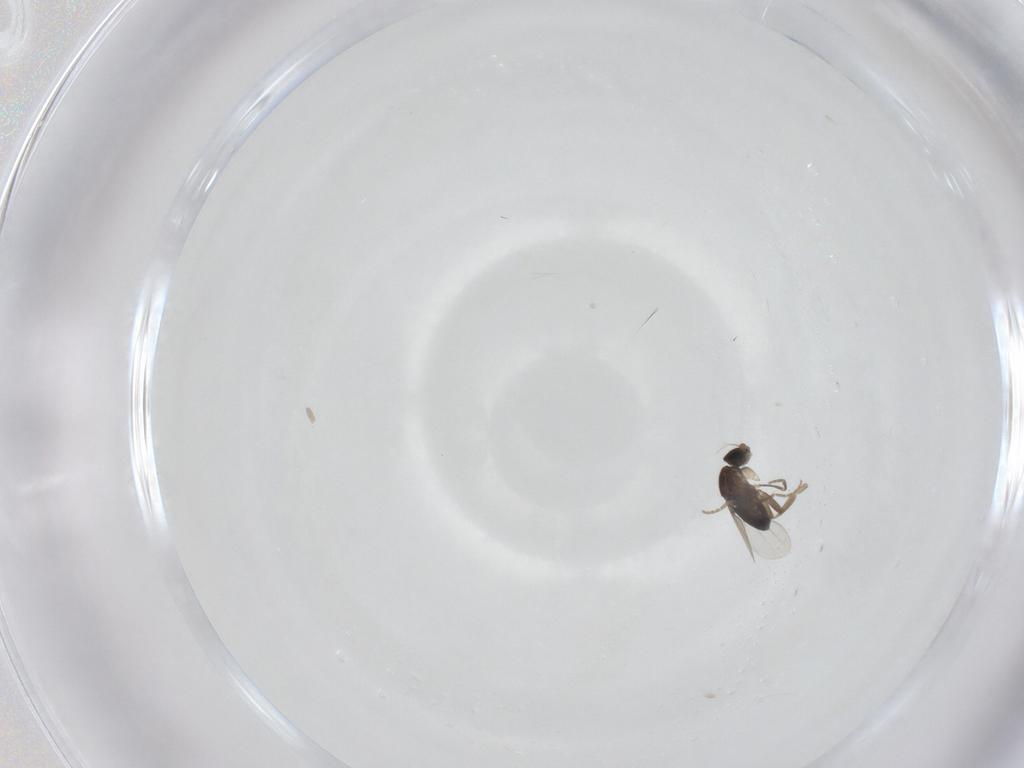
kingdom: Animalia
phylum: Arthropoda
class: Insecta
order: Diptera
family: Phoridae
